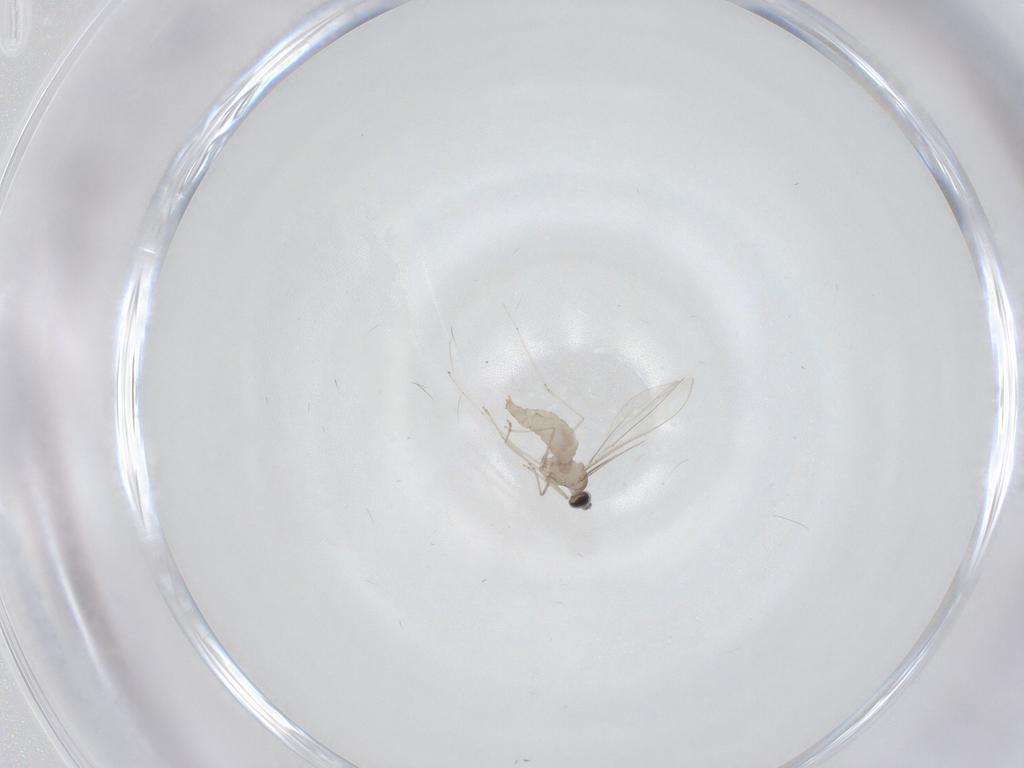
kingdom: Animalia
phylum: Arthropoda
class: Insecta
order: Diptera
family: Cecidomyiidae
